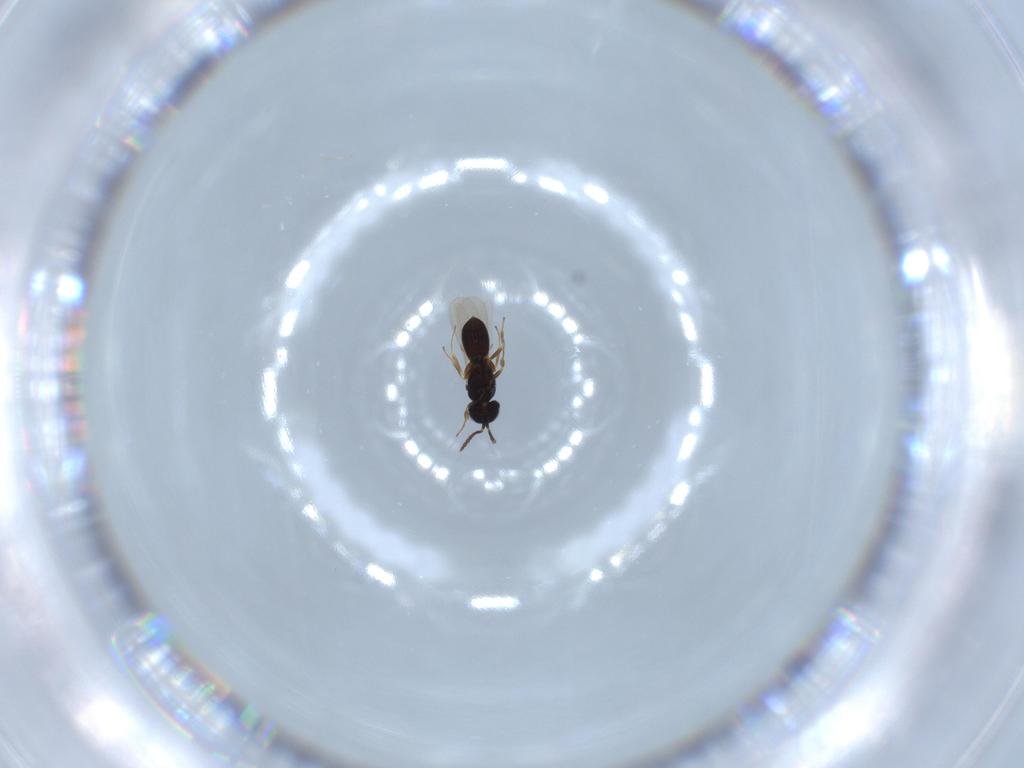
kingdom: Animalia
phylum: Arthropoda
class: Insecta
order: Hymenoptera
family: Scelionidae
